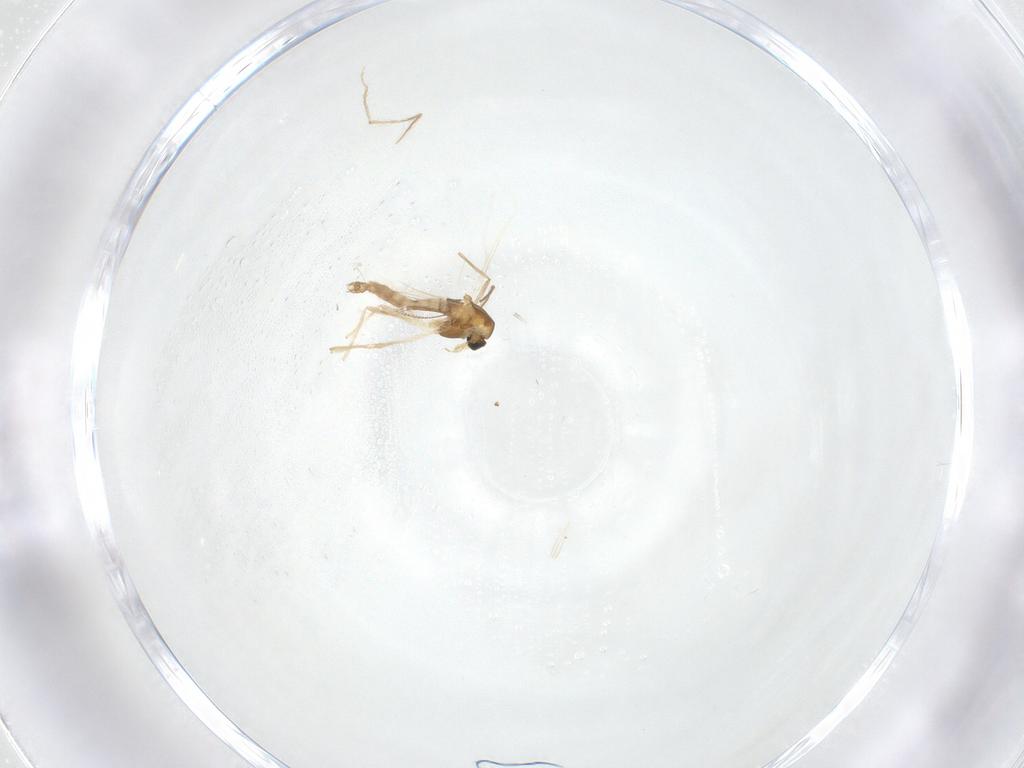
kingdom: Animalia
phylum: Arthropoda
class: Insecta
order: Diptera
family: Chironomidae
